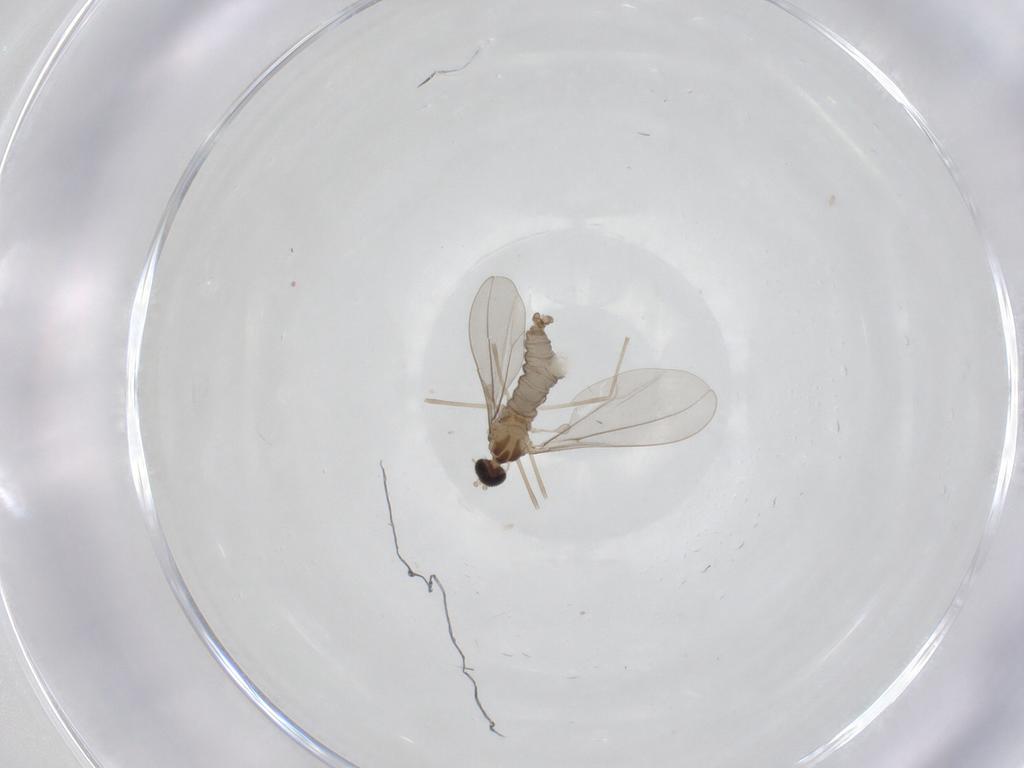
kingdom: Animalia
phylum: Arthropoda
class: Insecta
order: Diptera
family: Cecidomyiidae
